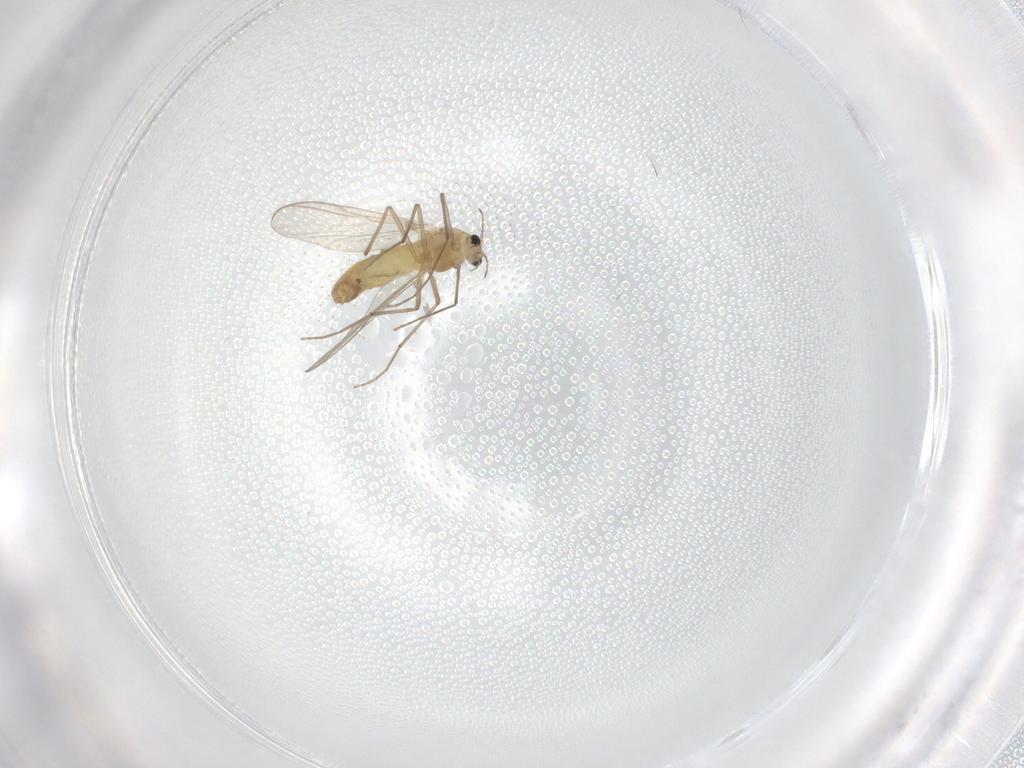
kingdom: Animalia
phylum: Arthropoda
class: Insecta
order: Diptera
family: Chironomidae
